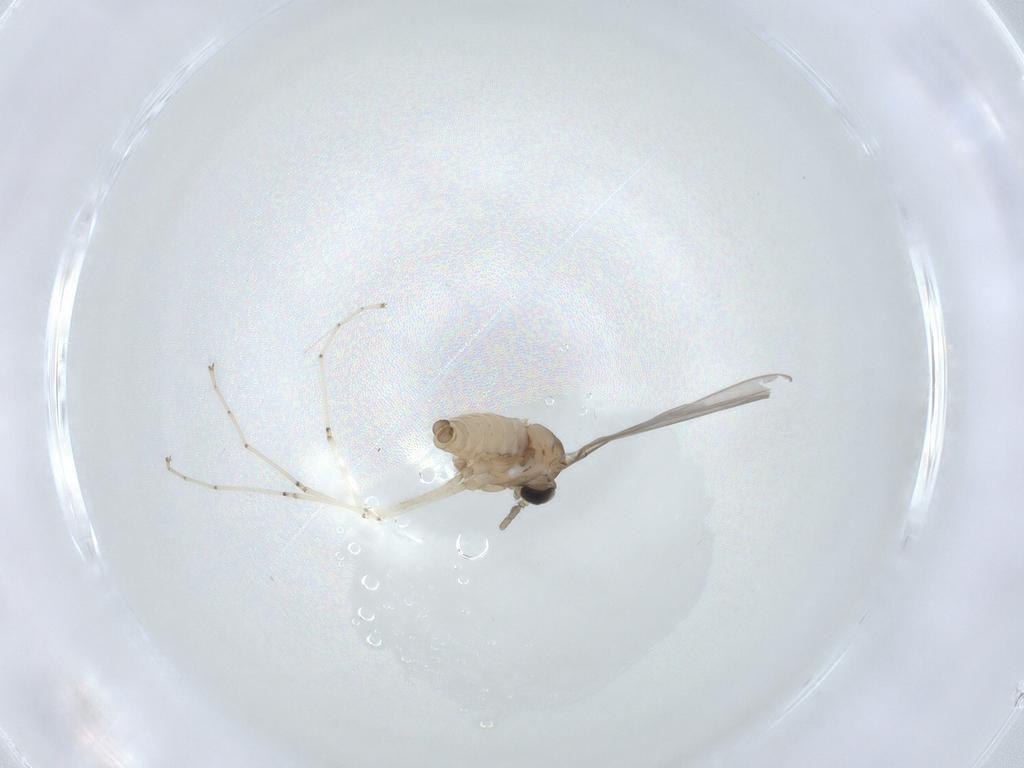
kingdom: Animalia
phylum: Arthropoda
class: Insecta
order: Diptera
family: Cecidomyiidae
